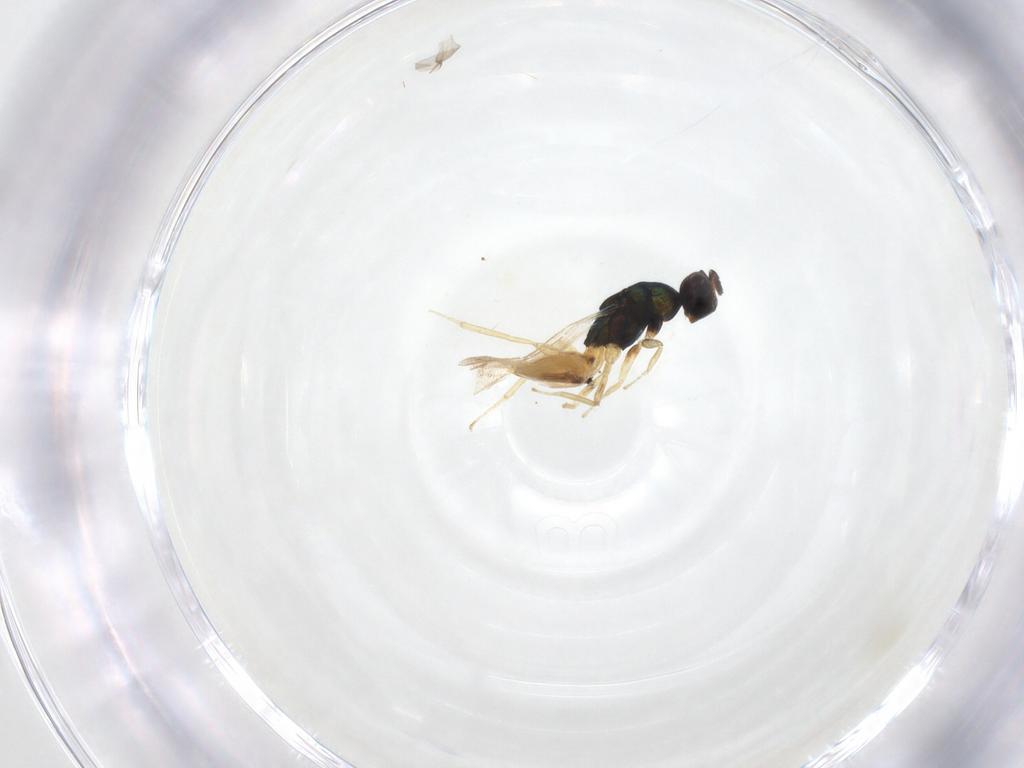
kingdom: Animalia
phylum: Arthropoda
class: Insecta
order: Hymenoptera
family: Eulophidae
